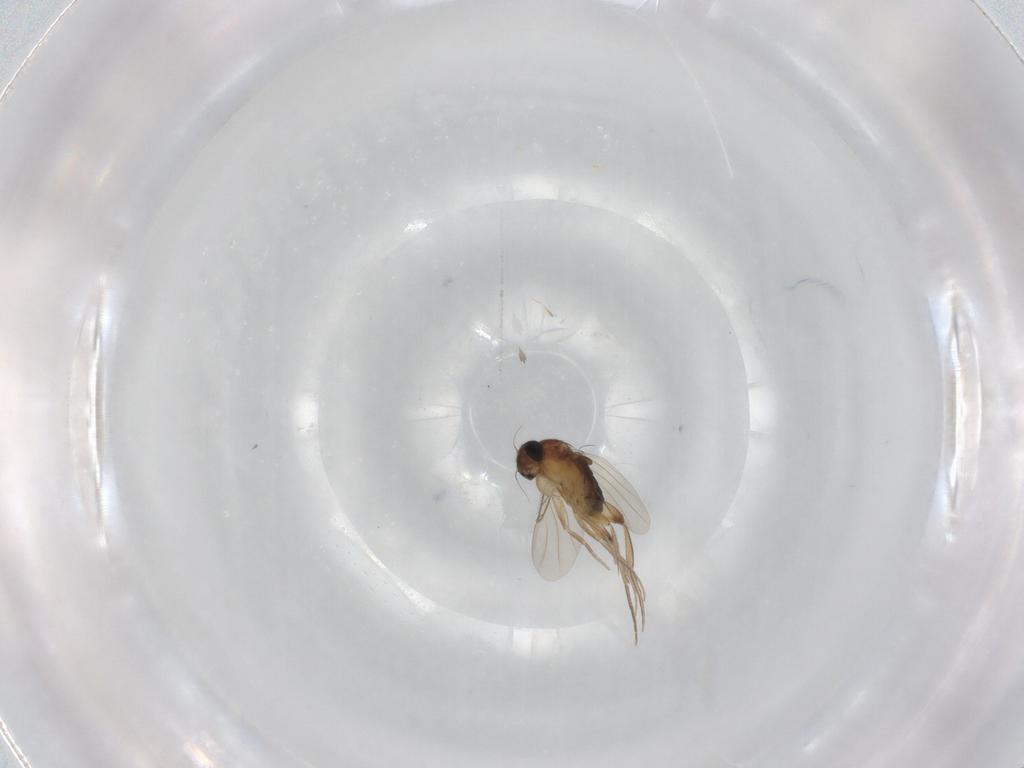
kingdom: Animalia
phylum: Arthropoda
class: Insecta
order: Diptera
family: Phoridae
